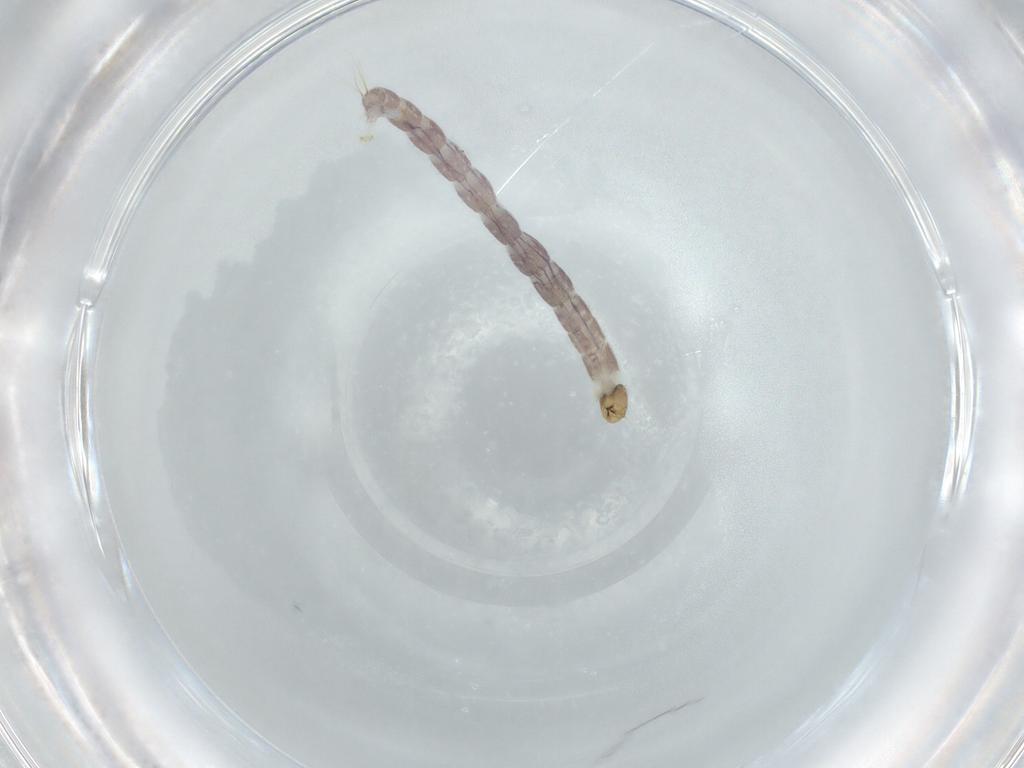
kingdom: Animalia
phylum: Arthropoda
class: Insecta
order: Diptera
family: Chironomidae
